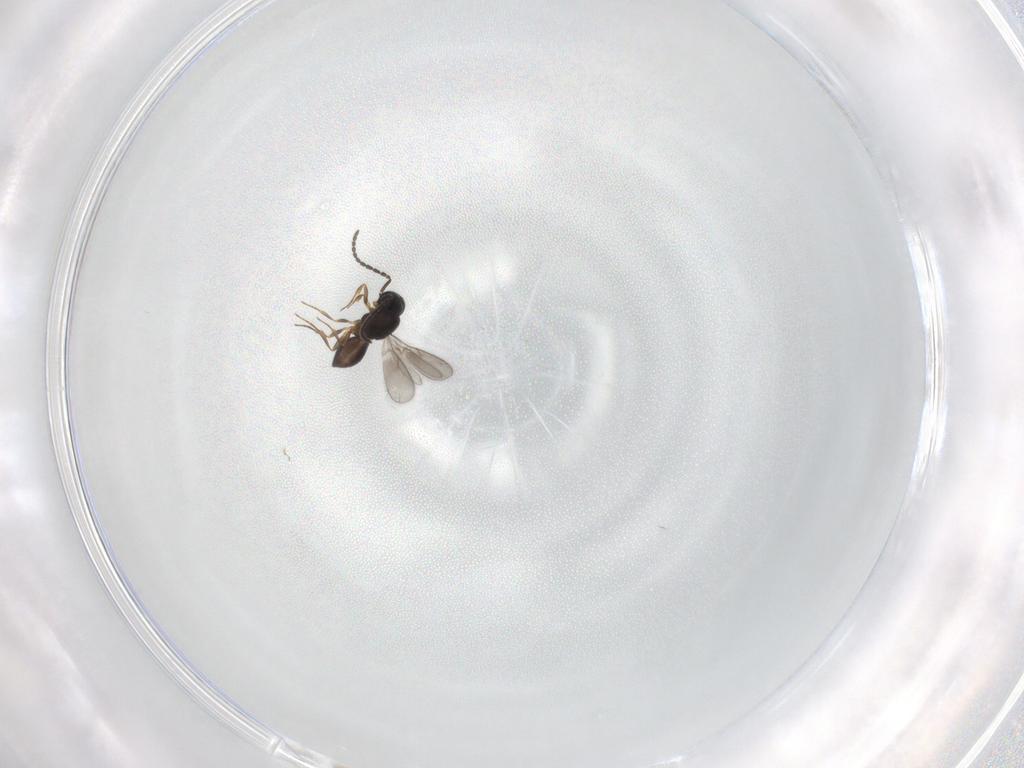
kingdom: Animalia
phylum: Arthropoda
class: Insecta
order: Hymenoptera
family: Scelionidae
